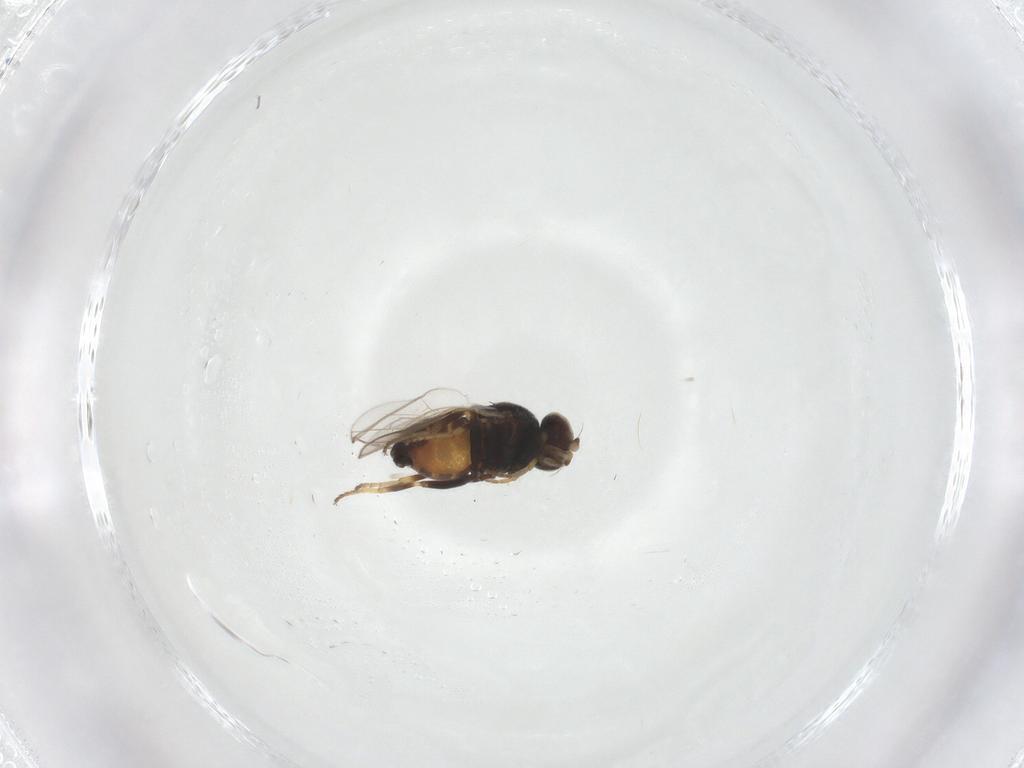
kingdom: Animalia
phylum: Arthropoda
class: Insecta
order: Diptera
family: Chloropidae
